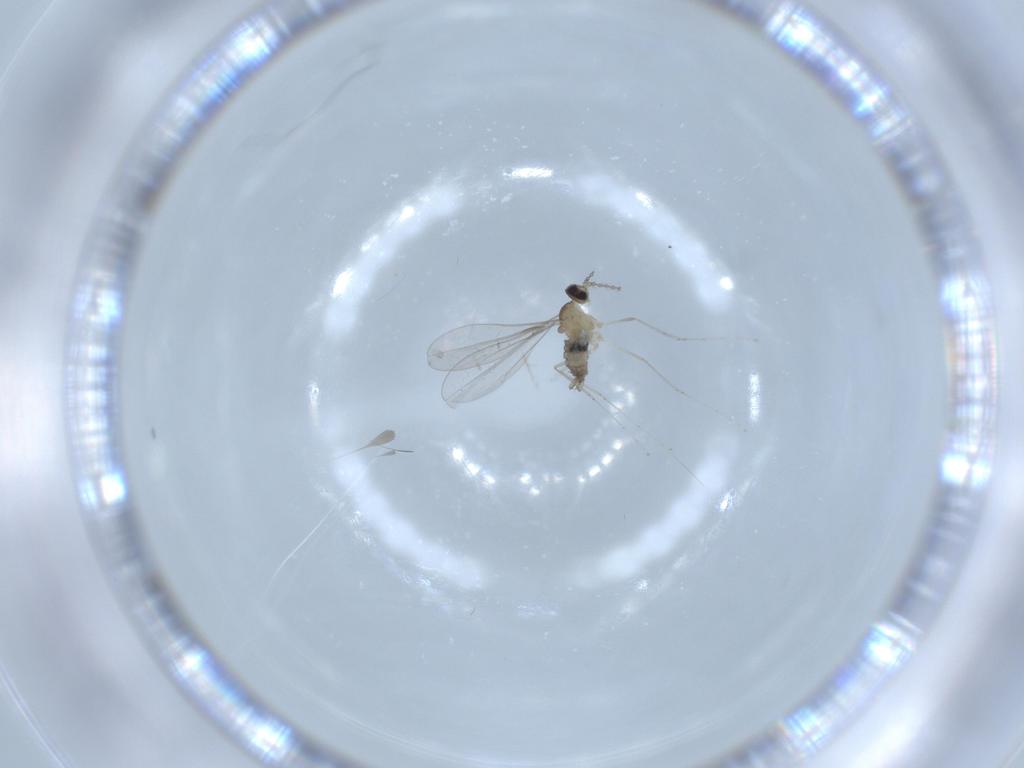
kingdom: Animalia
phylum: Arthropoda
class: Insecta
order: Diptera
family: Cecidomyiidae
